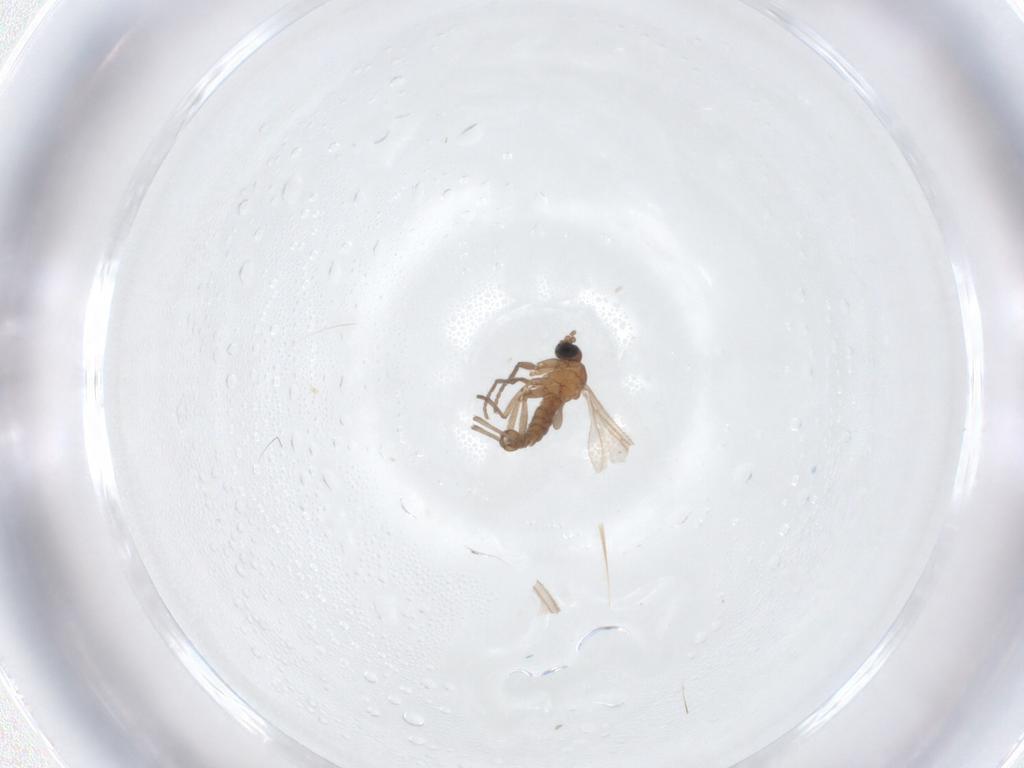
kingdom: Animalia
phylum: Arthropoda
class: Insecta
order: Diptera
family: Sciaridae
